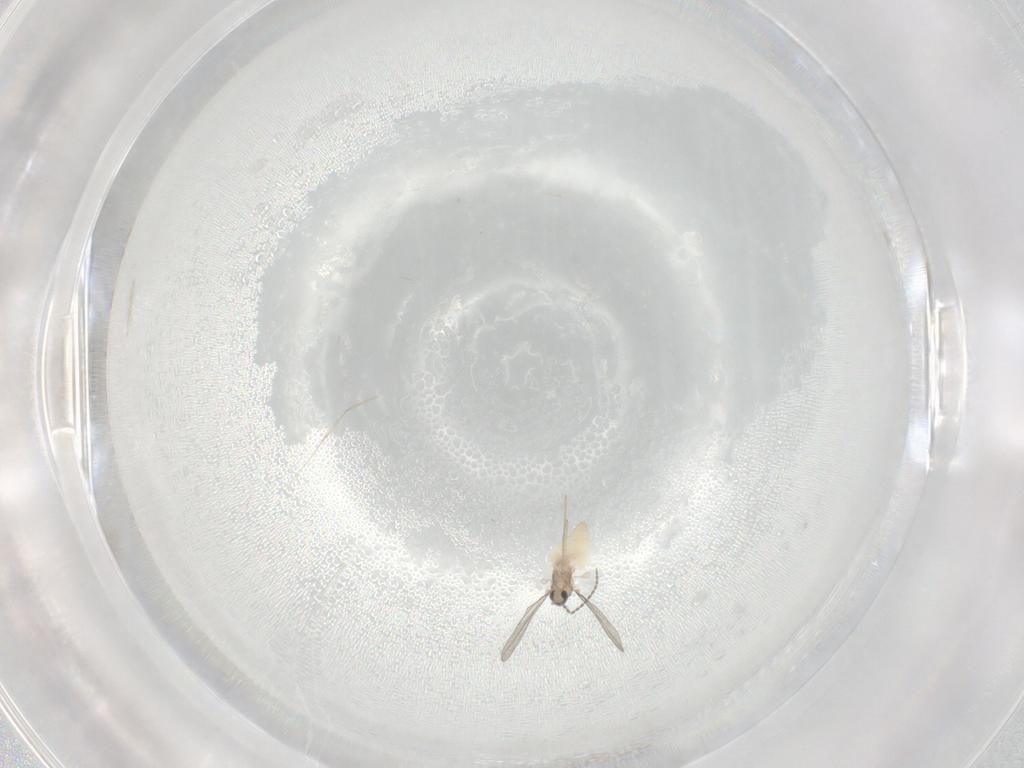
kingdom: Animalia
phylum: Arthropoda
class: Insecta
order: Diptera
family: Cecidomyiidae
